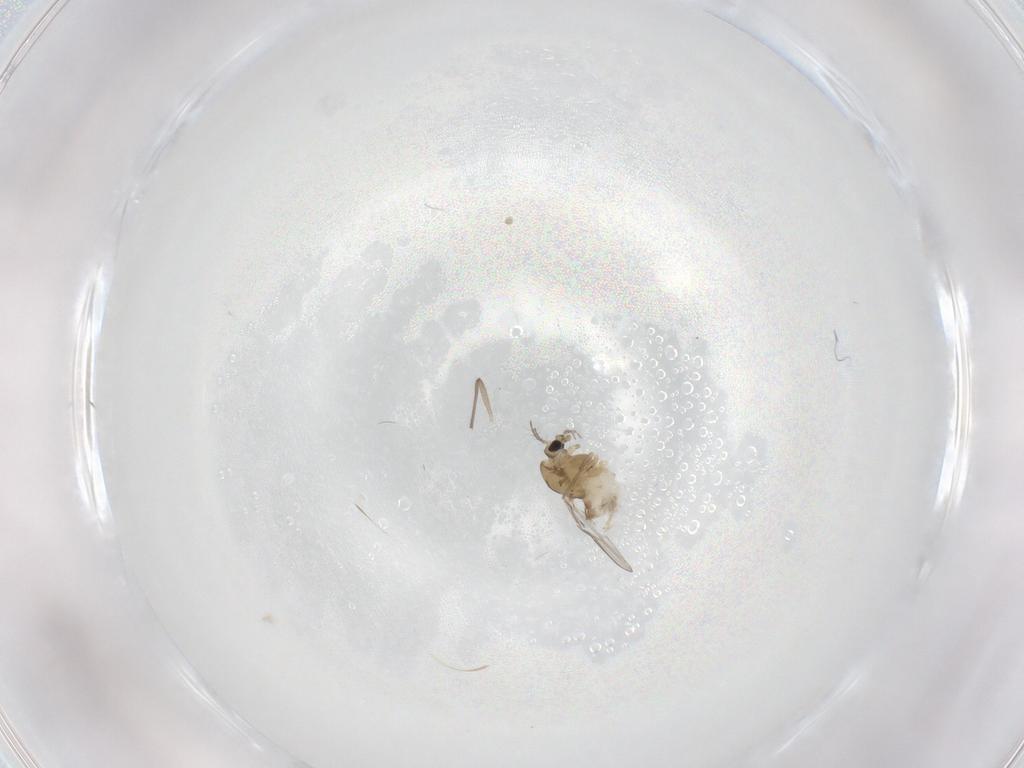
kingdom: Animalia
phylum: Arthropoda
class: Insecta
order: Diptera
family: Chironomidae
